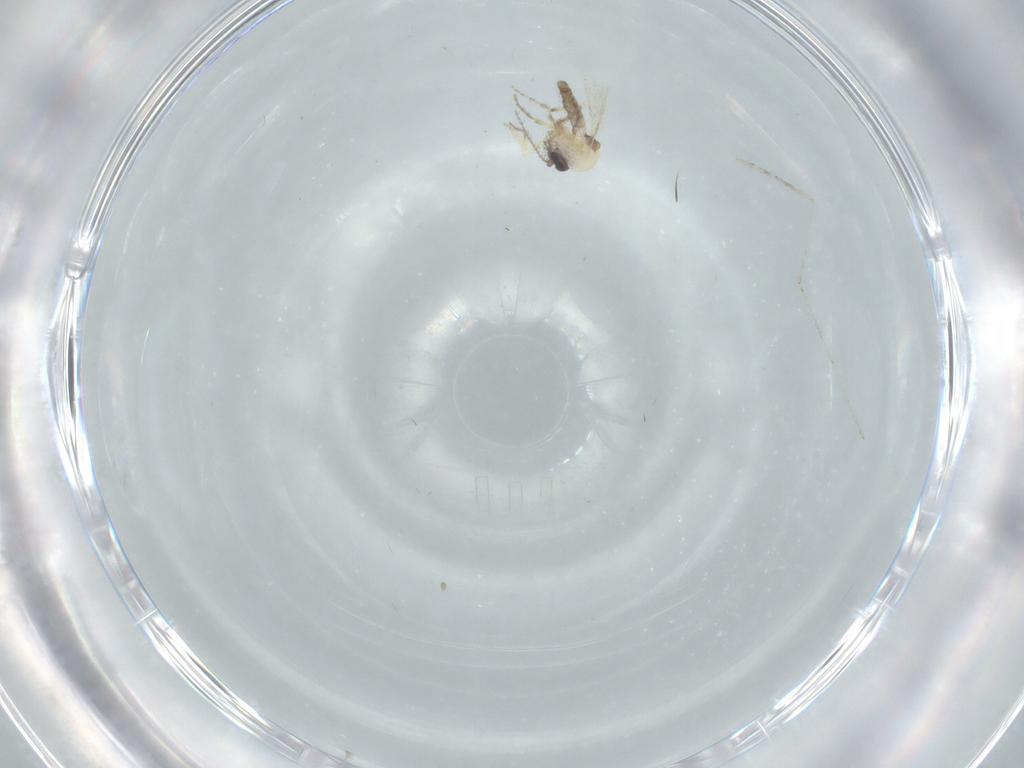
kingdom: Animalia
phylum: Arthropoda
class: Insecta
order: Diptera
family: Ceratopogonidae
